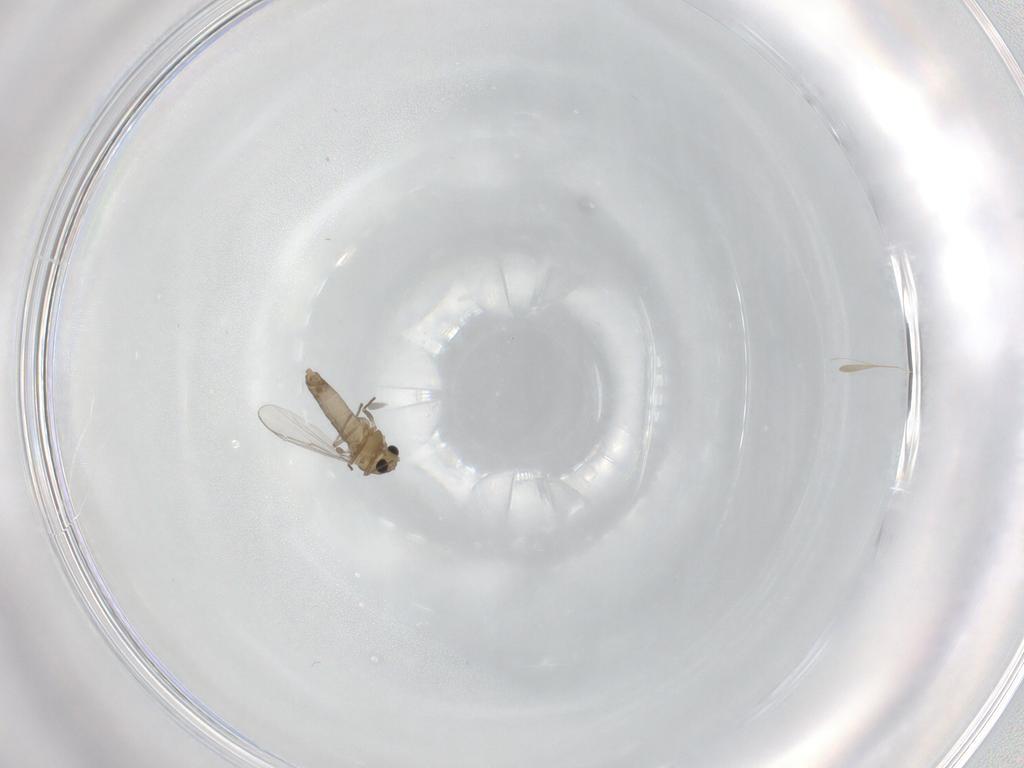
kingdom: Animalia
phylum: Arthropoda
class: Insecta
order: Diptera
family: Chironomidae
